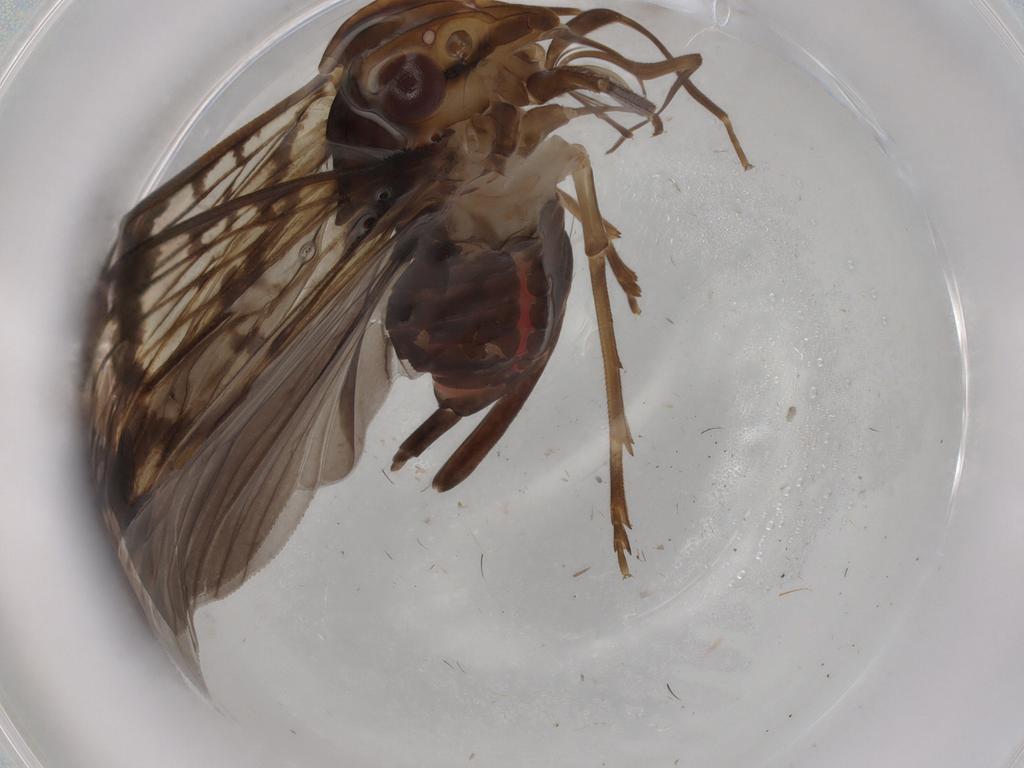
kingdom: Animalia
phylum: Arthropoda
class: Insecta
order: Hemiptera
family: Cixiidae
